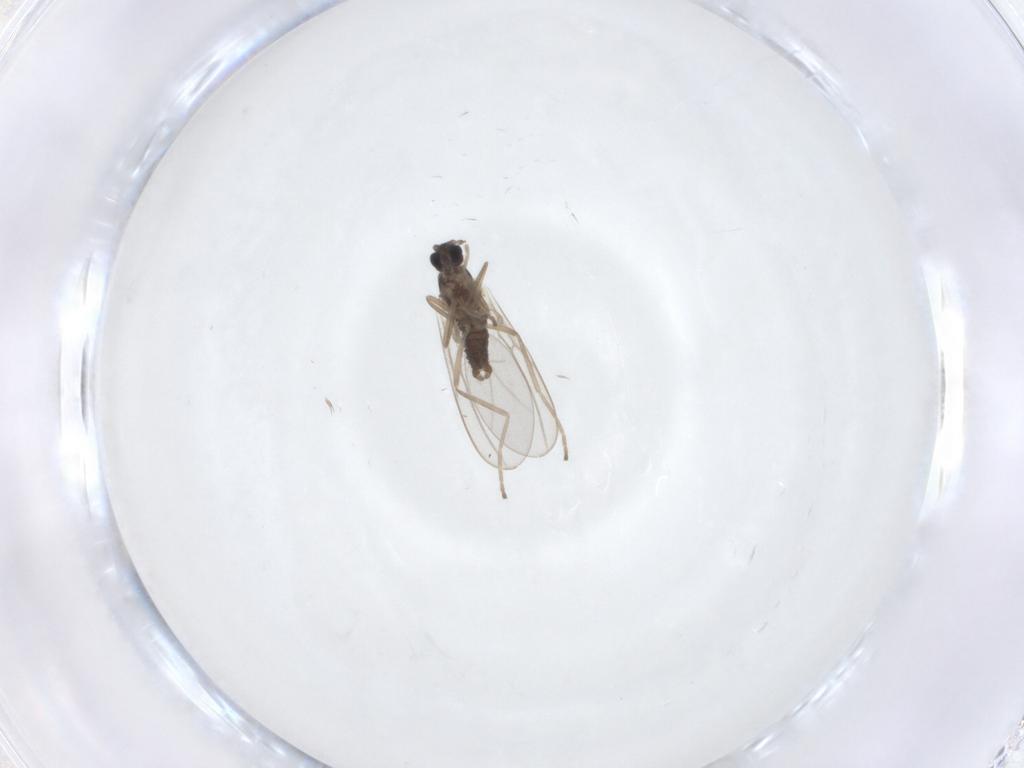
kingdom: Animalia
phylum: Arthropoda
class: Insecta
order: Diptera
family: Cecidomyiidae
